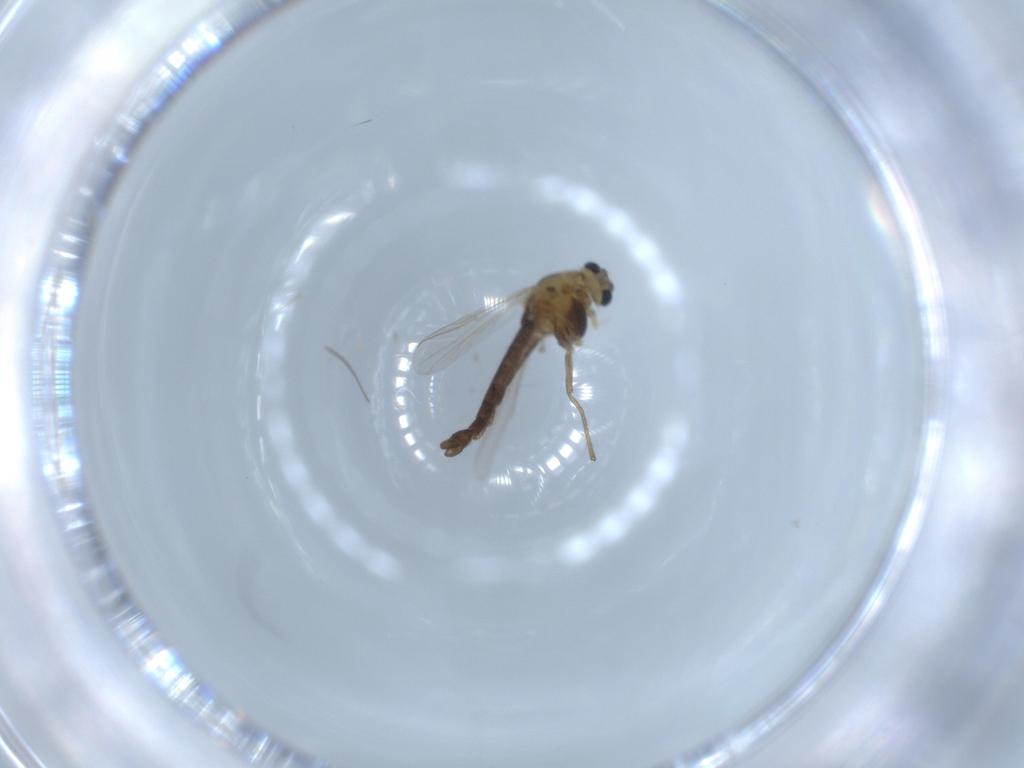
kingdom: Animalia
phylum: Arthropoda
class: Insecta
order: Diptera
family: Chironomidae
